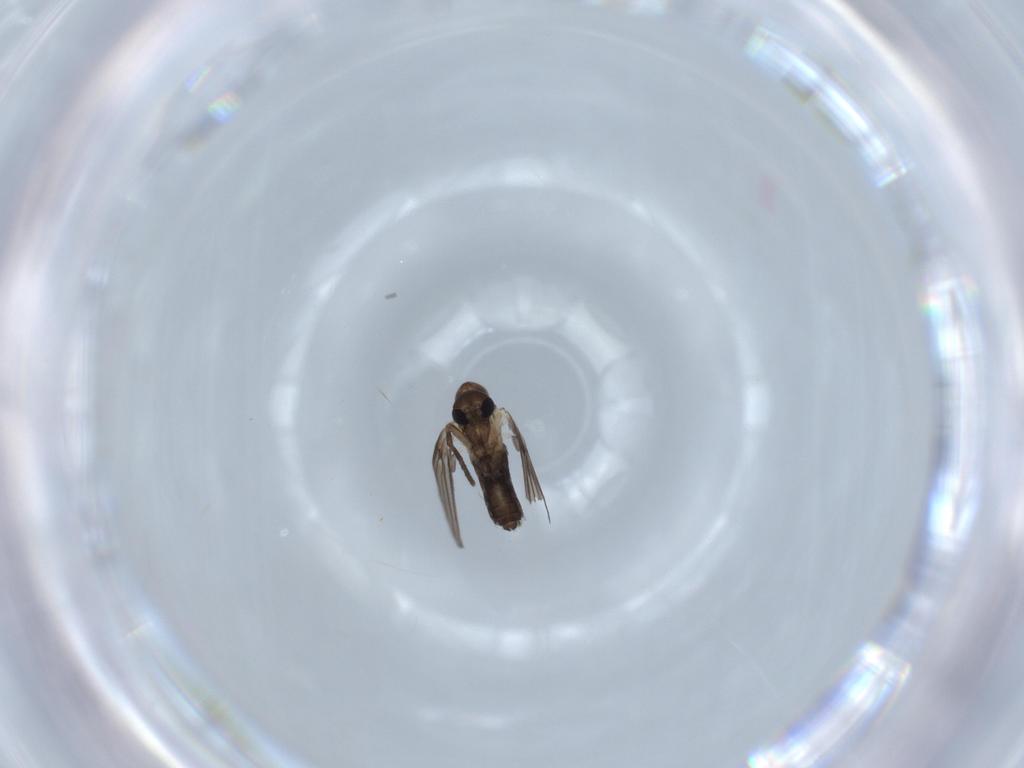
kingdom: Animalia
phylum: Arthropoda
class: Insecta
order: Diptera
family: Psychodidae
